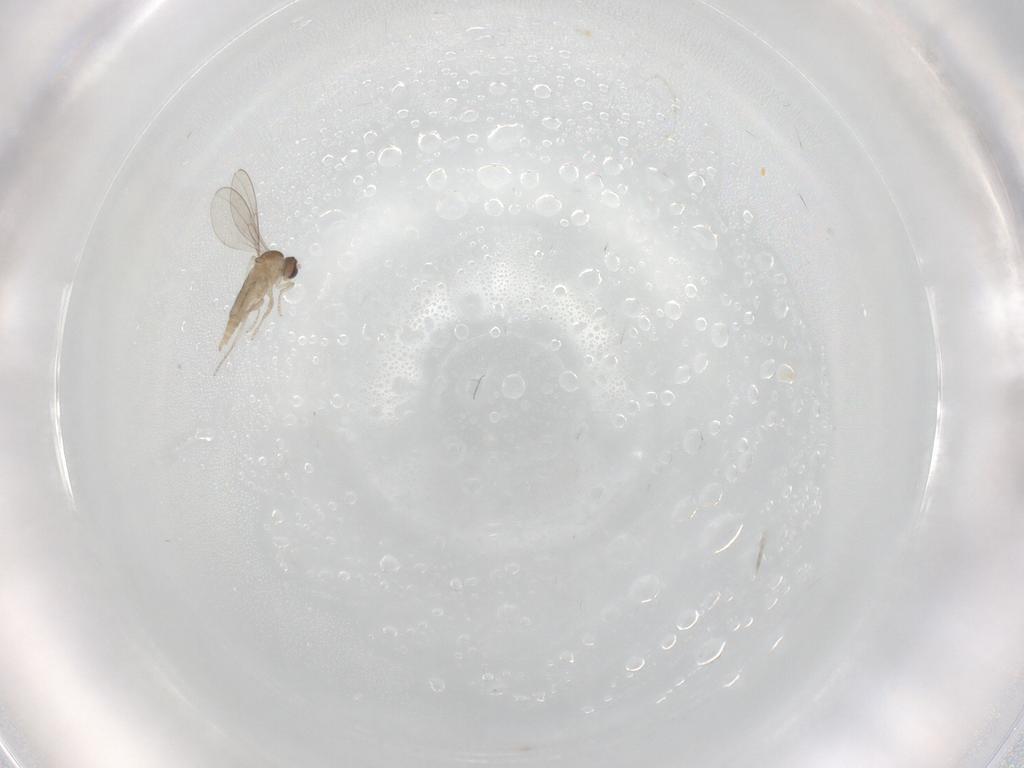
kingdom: Animalia
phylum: Arthropoda
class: Insecta
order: Diptera
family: Cecidomyiidae
